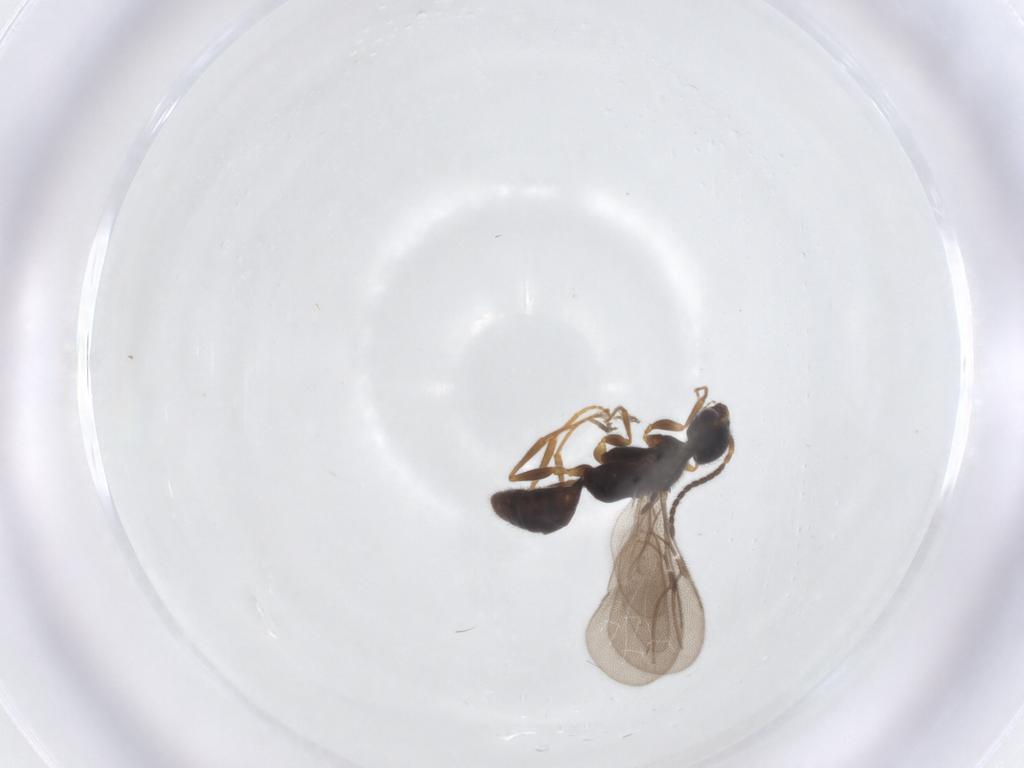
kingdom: Animalia
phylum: Arthropoda
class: Insecta
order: Hymenoptera
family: Bethylidae
